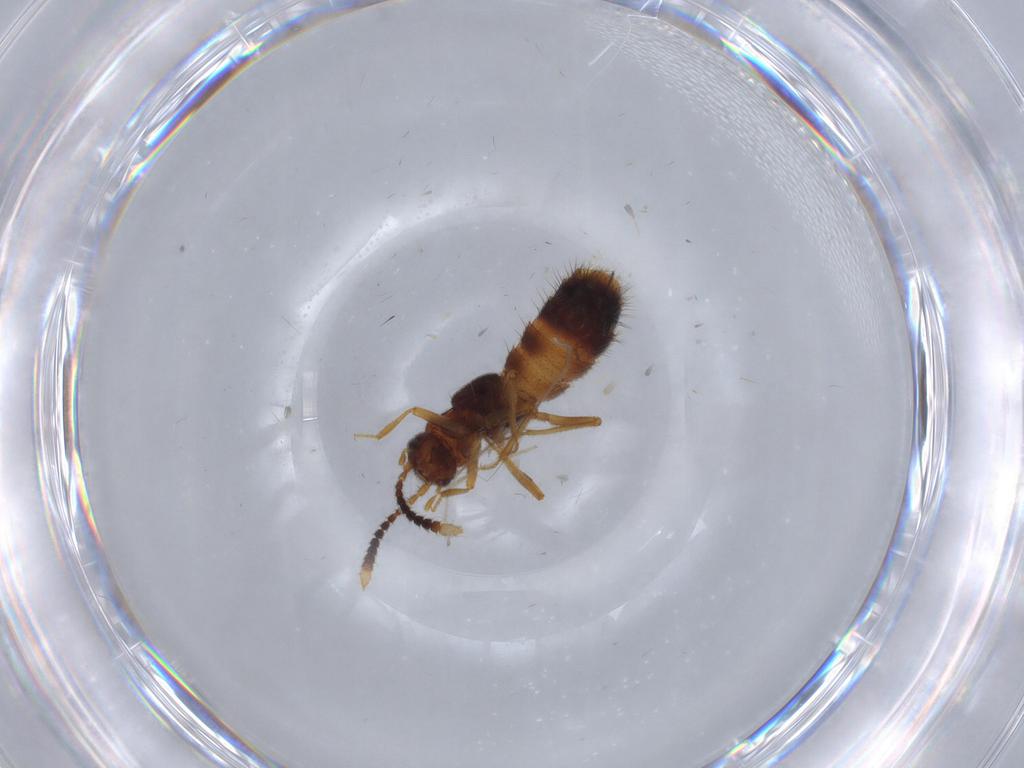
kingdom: Animalia
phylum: Arthropoda
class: Insecta
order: Coleoptera
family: Staphylinidae
